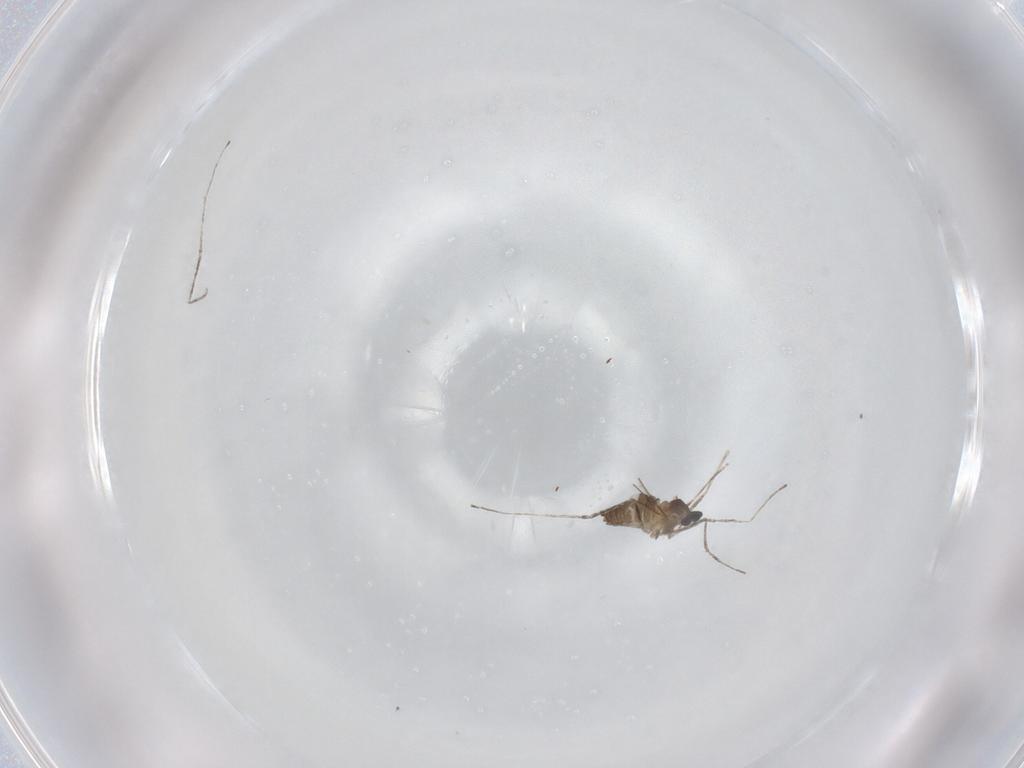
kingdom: Animalia
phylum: Arthropoda
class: Insecta
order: Diptera
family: Cecidomyiidae
